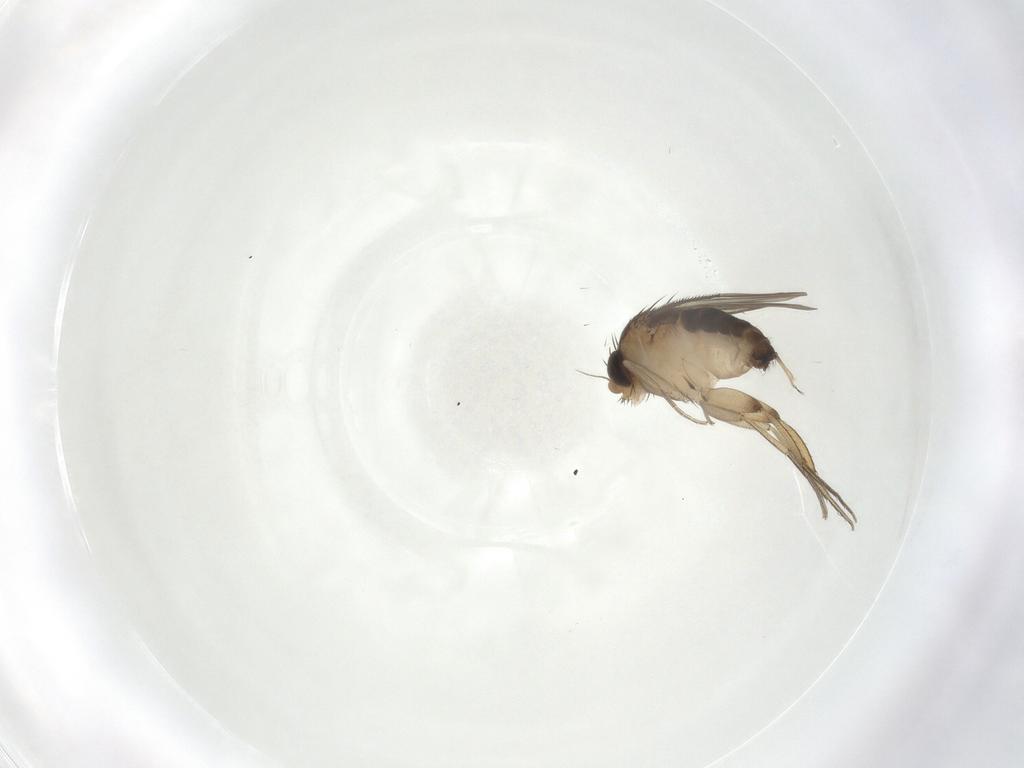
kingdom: Animalia
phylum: Arthropoda
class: Insecta
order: Diptera
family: Phoridae
